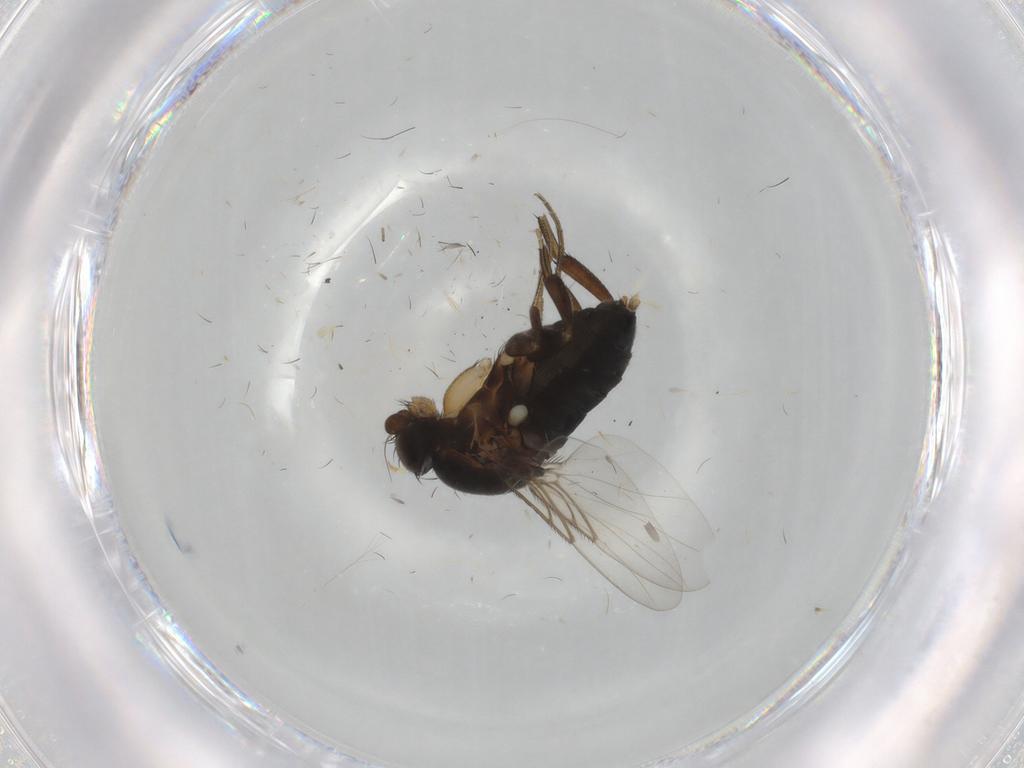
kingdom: Animalia
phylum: Arthropoda
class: Insecta
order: Diptera
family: Phoridae
